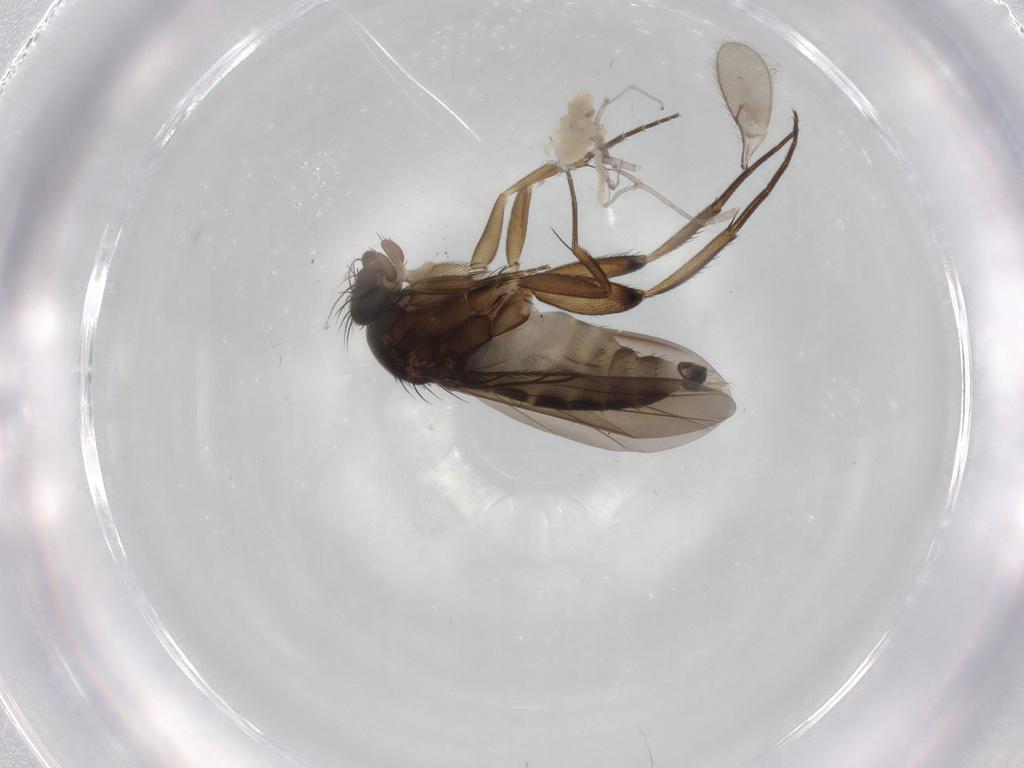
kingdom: Animalia
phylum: Arthropoda
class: Insecta
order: Diptera
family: Phoridae
